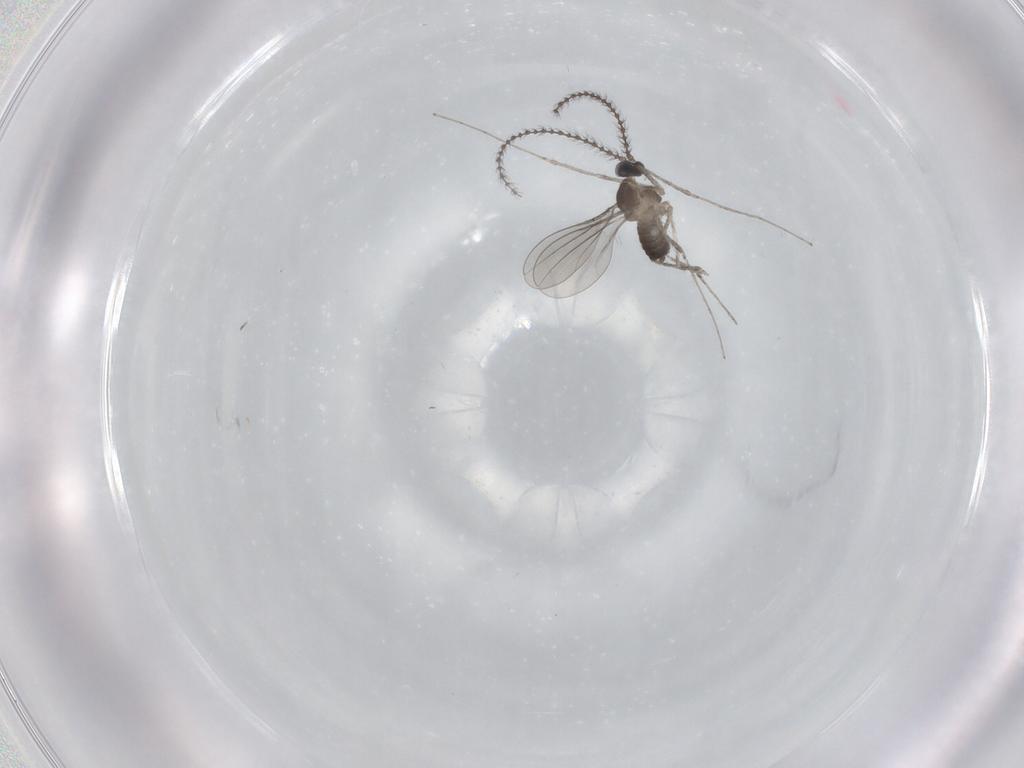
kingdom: Animalia
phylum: Arthropoda
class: Insecta
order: Diptera
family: Cecidomyiidae
